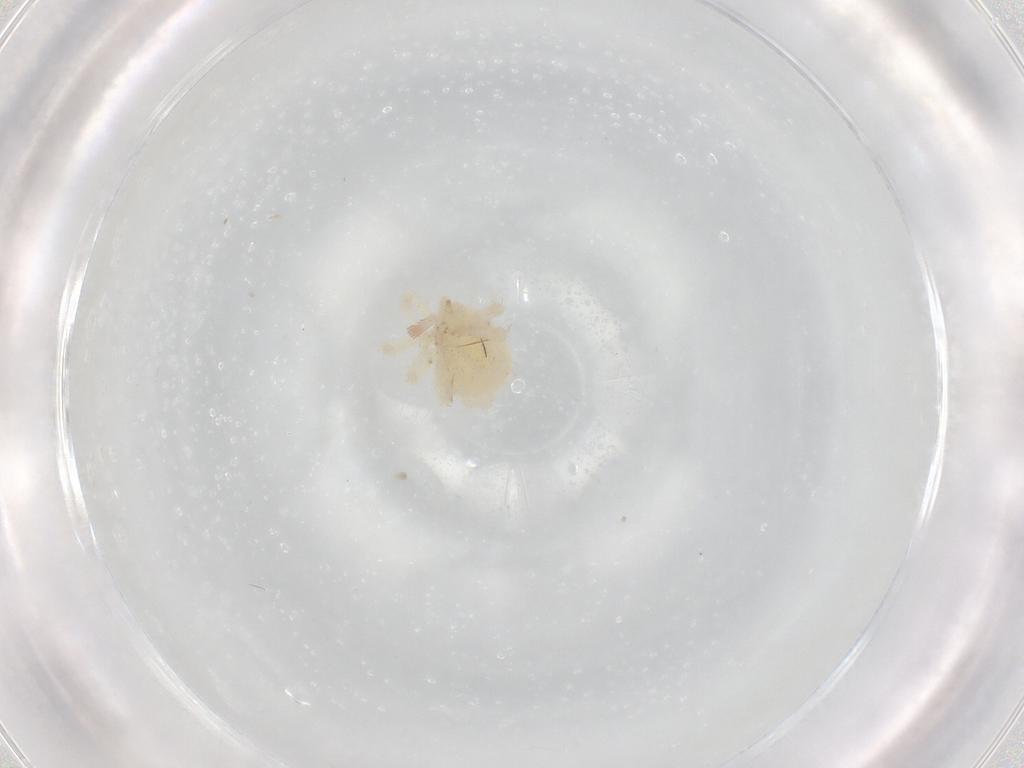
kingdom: Animalia
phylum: Arthropoda
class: Arachnida
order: Trombidiformes
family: Anystidae
